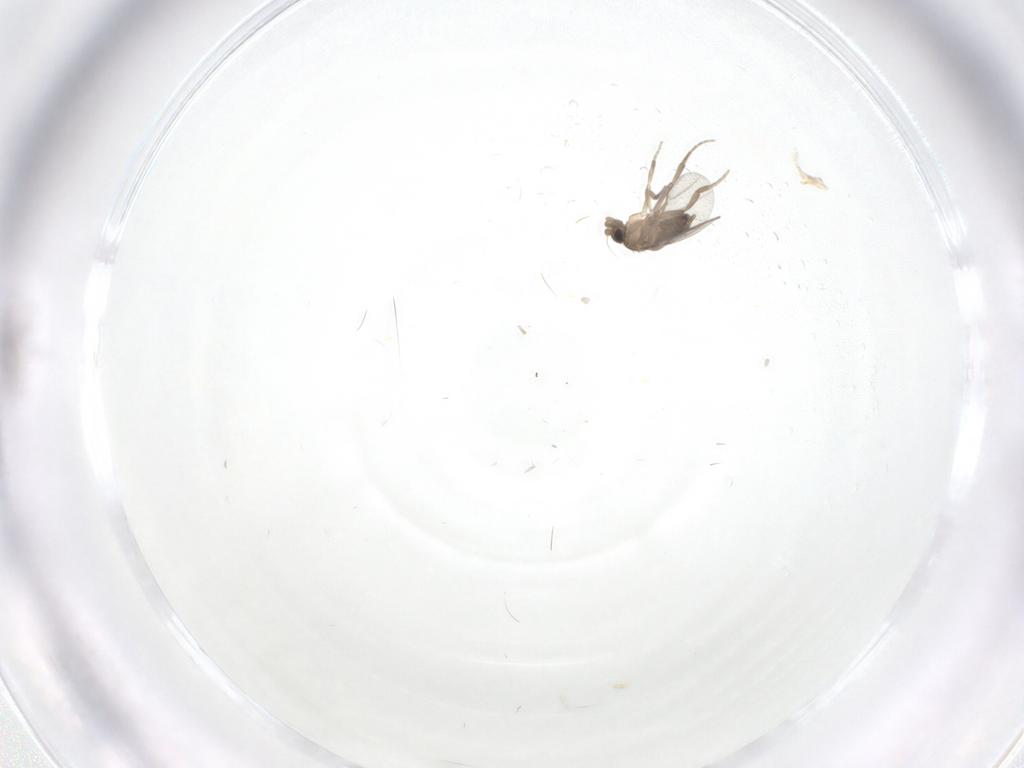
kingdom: Animalia
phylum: Arthropoda
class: Insecta
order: Diptera
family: Phoridae
